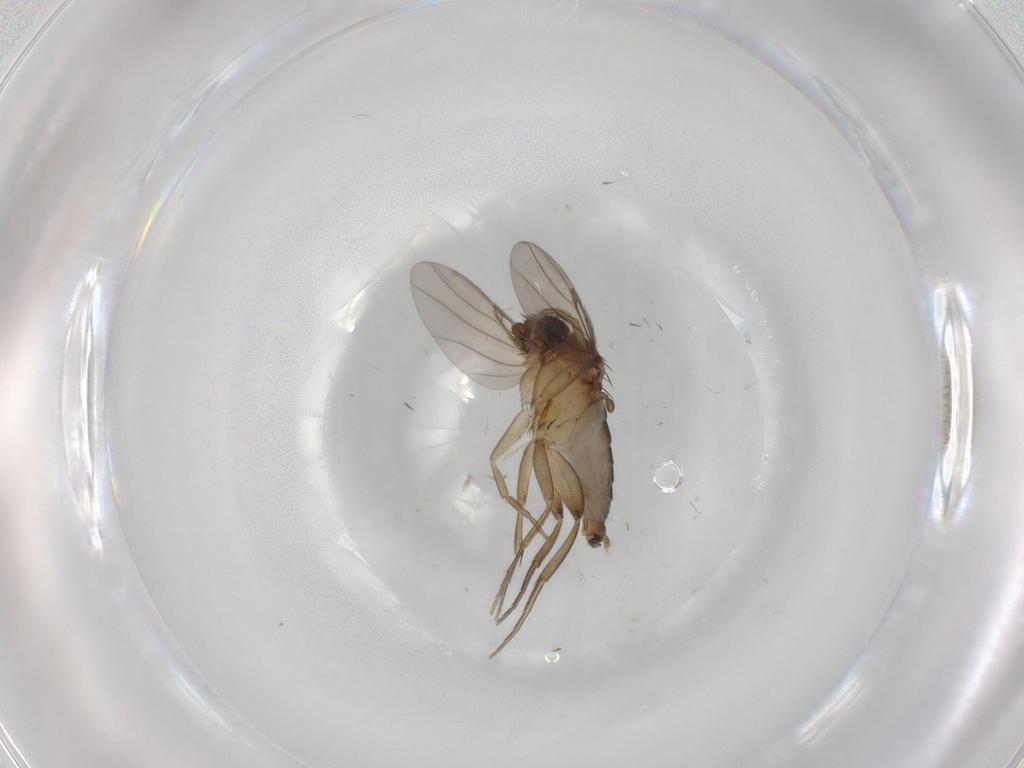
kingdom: Animalia
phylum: Arthropoda
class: Insecta
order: Diptera
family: Phoridae
